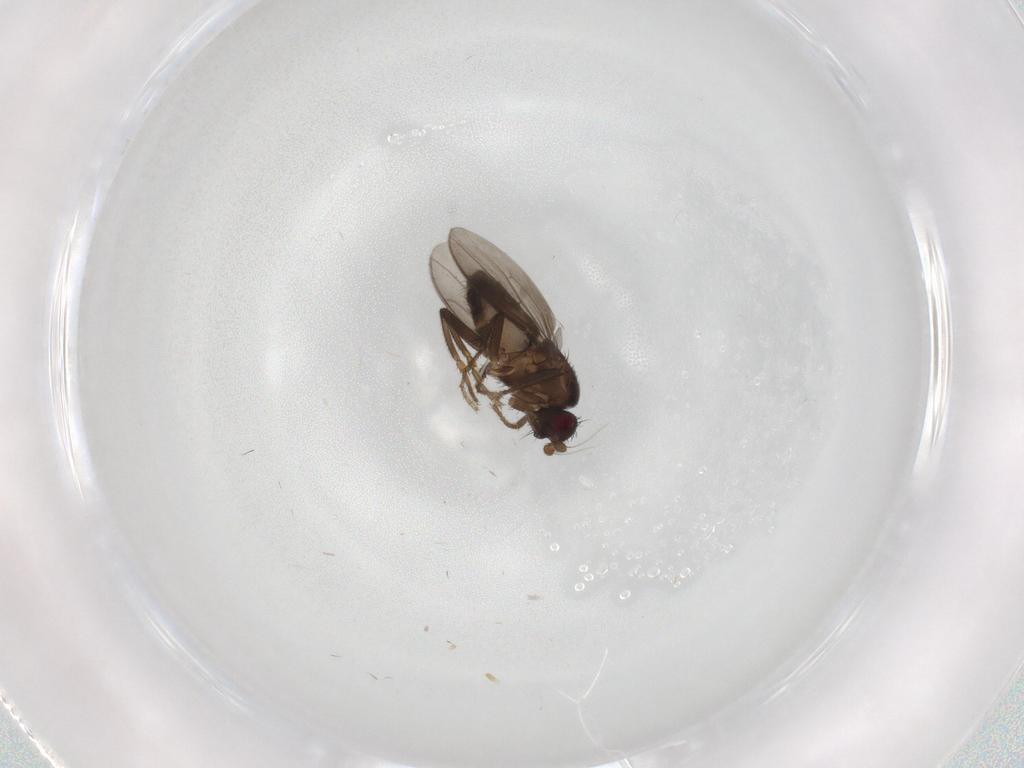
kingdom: Animalia
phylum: Arthropoda
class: Insecta
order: Diptera
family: Sphaeroceridae
